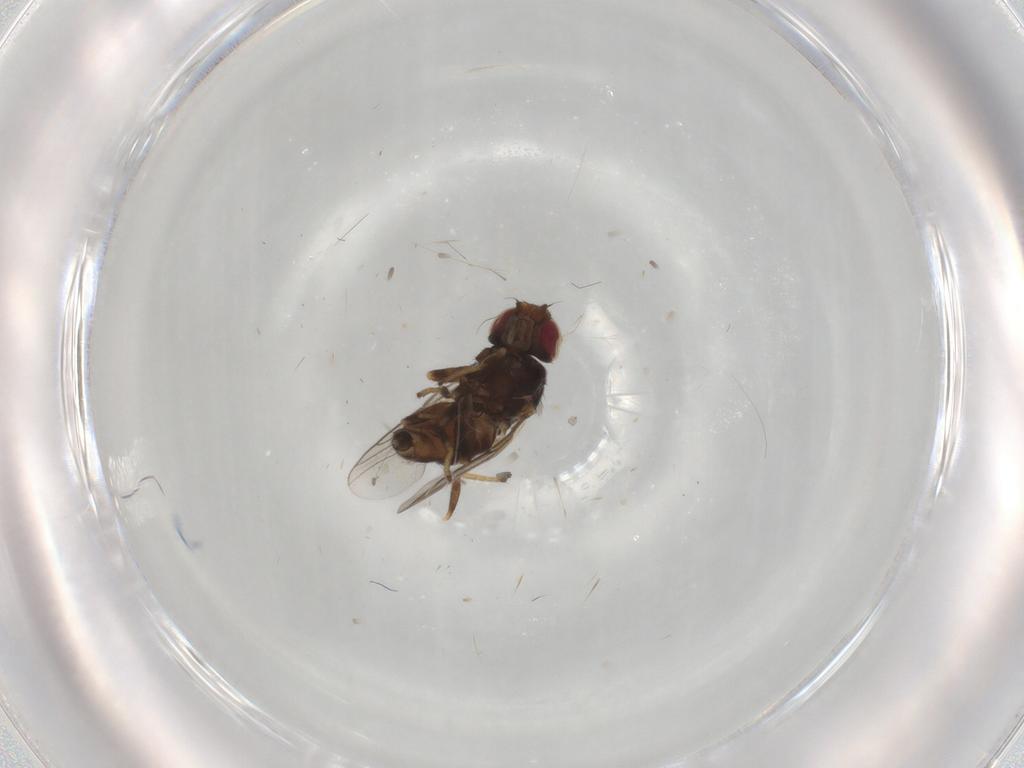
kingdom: Animalia
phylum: Arthropoda
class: Insecta
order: Diptera
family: Chloropidae
